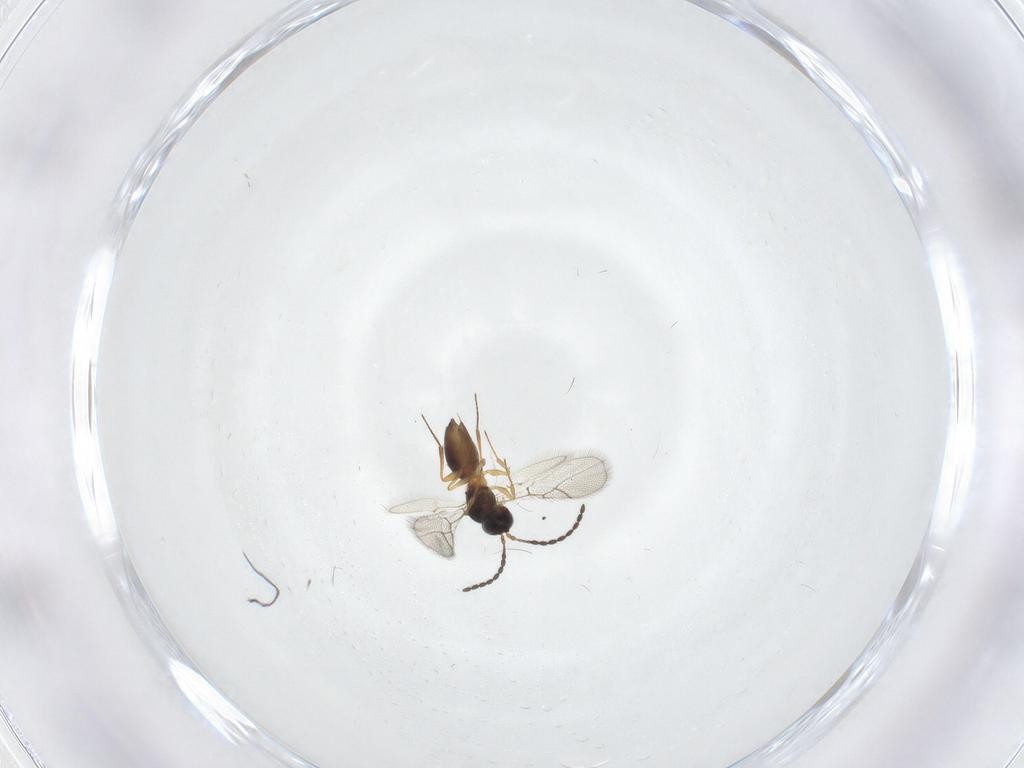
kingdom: Animalia
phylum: Arthropoda
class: Insecta
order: Hymenoptera
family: Figitidae
